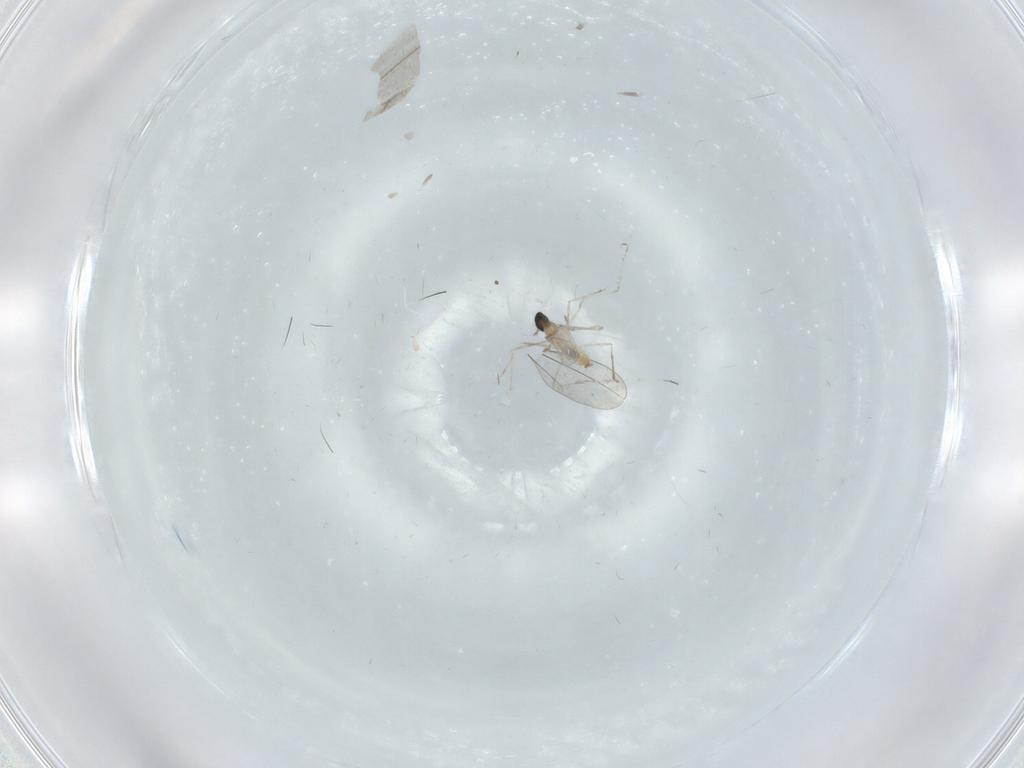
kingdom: Animalia
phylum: Arthropoda
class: Insecta
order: Diptera
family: Cecidomyiidae
